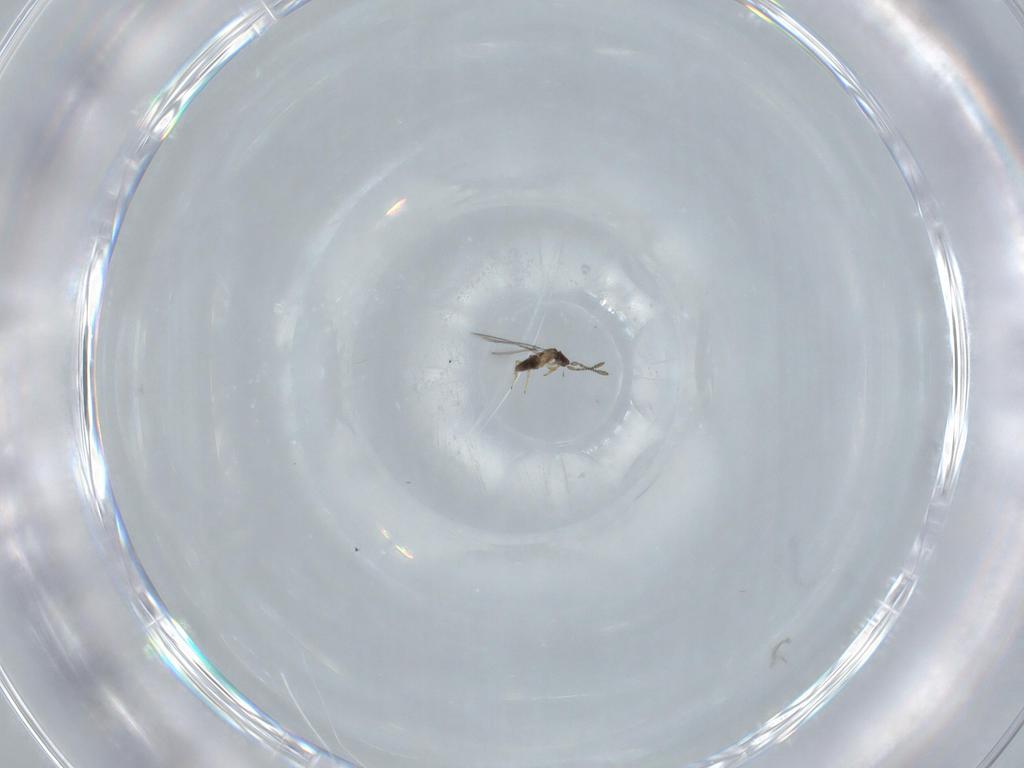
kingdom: Animalia
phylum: Arthropoda
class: Insecta
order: Hymenoptera
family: Mymaridae
